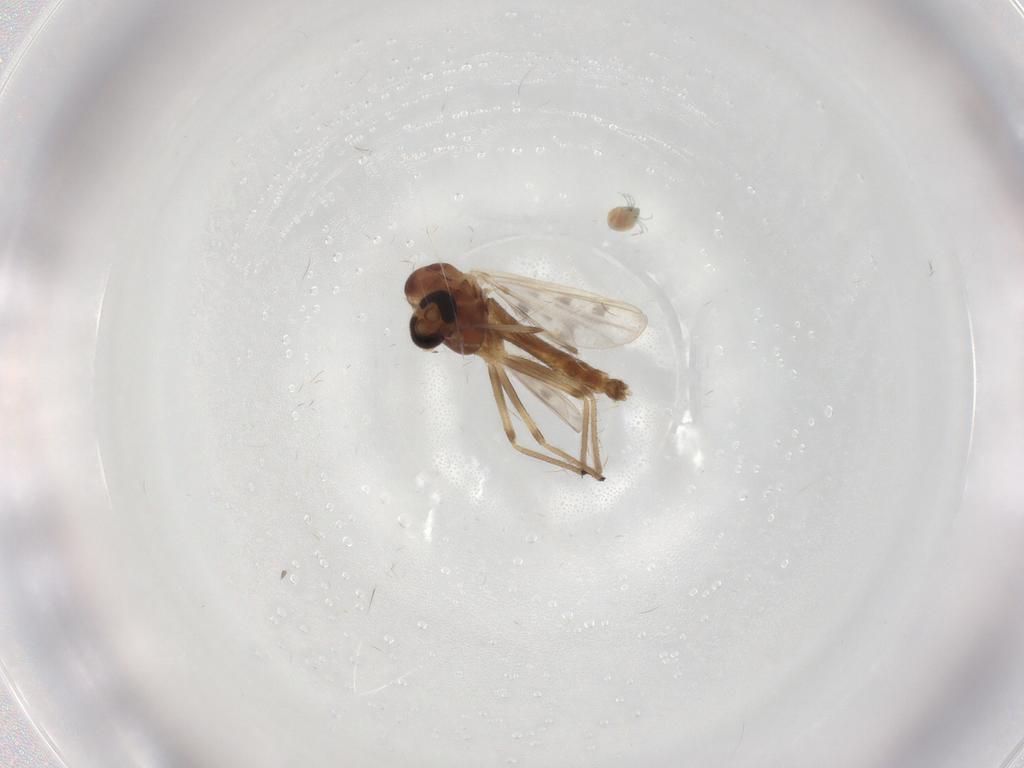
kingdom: Animalia
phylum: Arthropoda
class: Insecta
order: Diptera
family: Chironomidae
